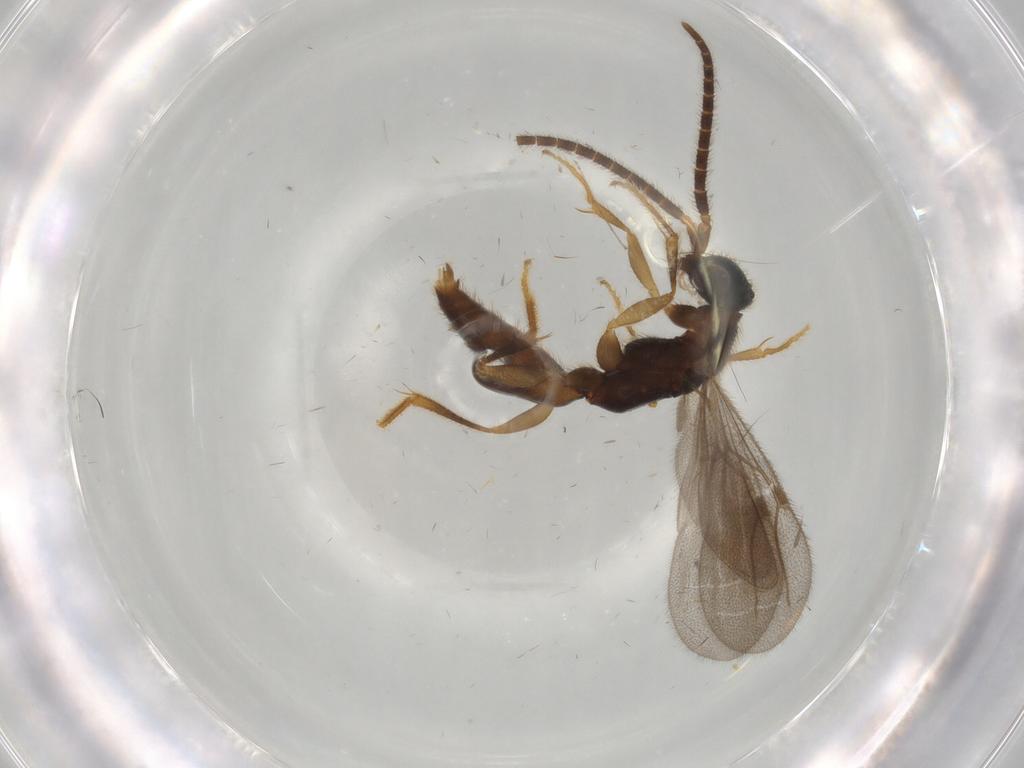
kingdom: Animalia
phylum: Arthropoda
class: Insecta
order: Hymenoptera
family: Bethylidae
